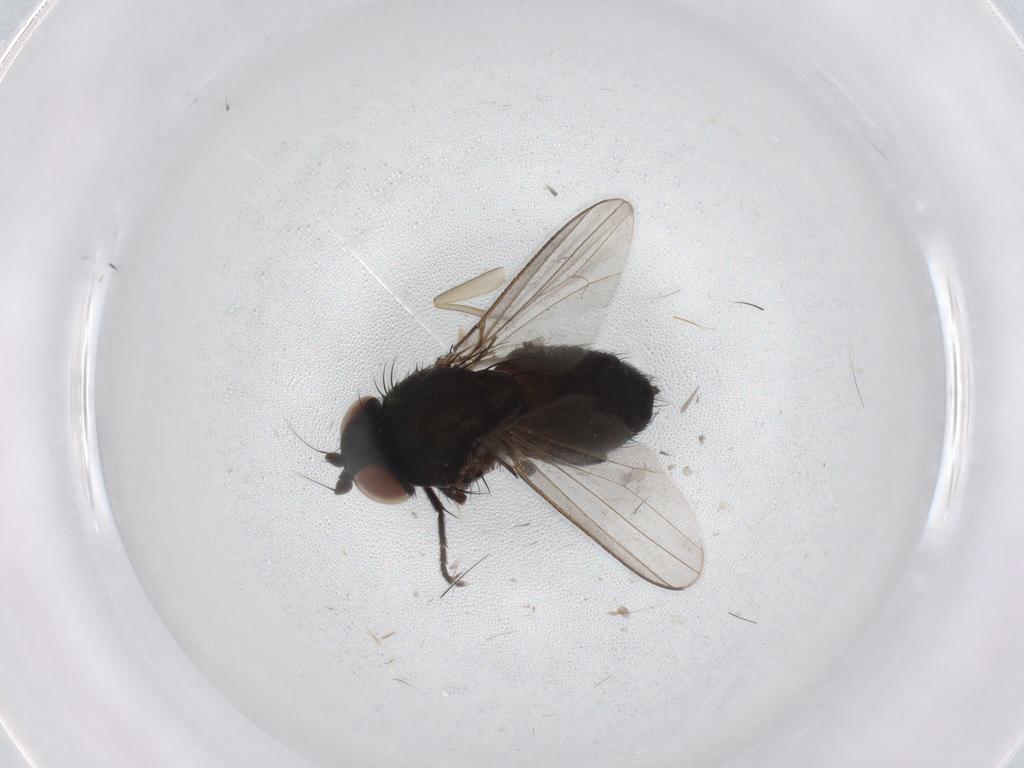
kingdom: Animalia
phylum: Arthropoda
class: Insecta
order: Diptera
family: Milichiidae
